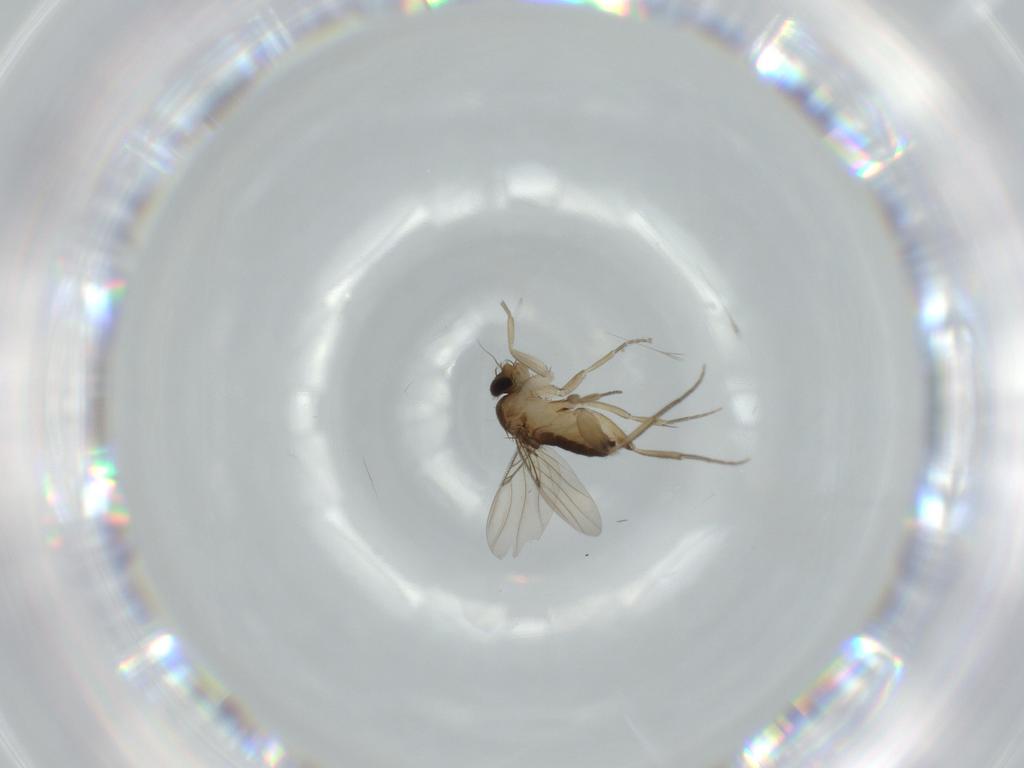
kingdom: Animalia
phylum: Arthropoda
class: Insecta
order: Diptera
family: Phoridae
